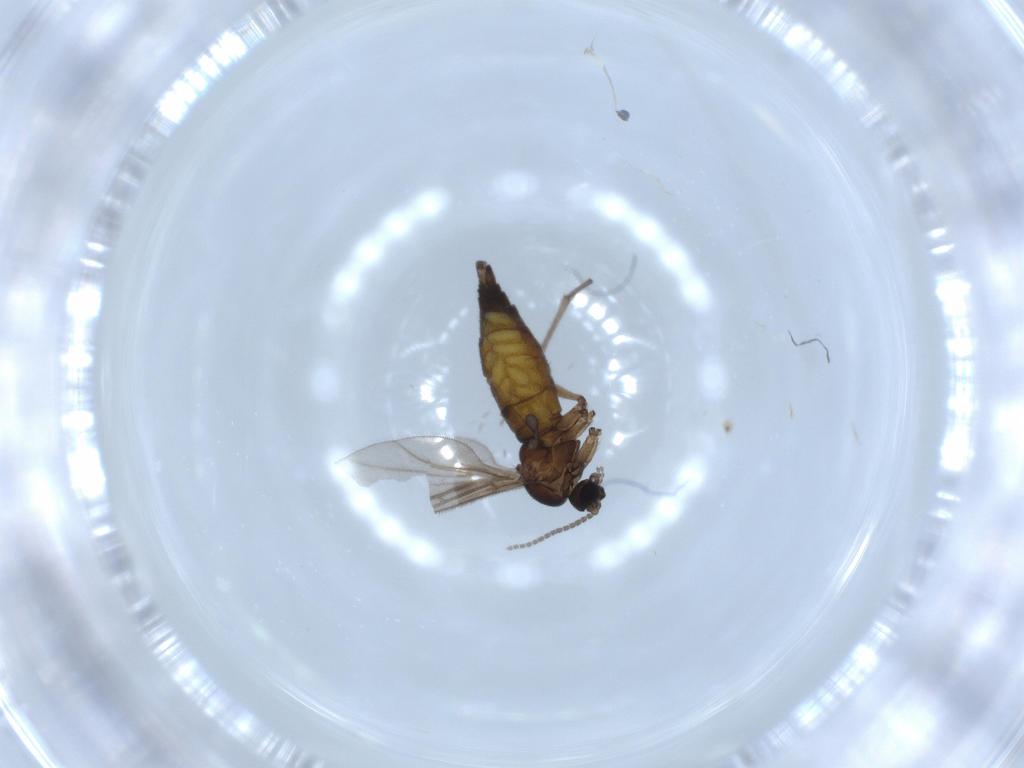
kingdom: Animalia
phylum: Arthropoda
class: Insecta
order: Diptera
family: Sciaridae
